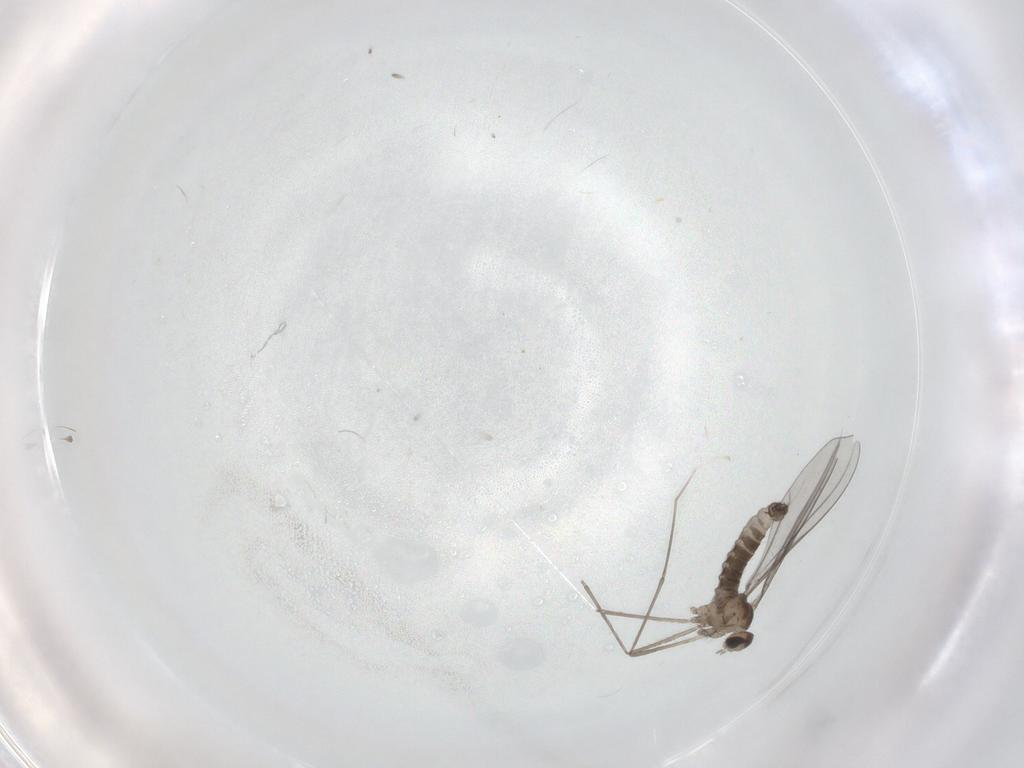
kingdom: Animalia
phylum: Arthropoda
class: Insecta
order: Diptera
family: Cecidomyiidae
